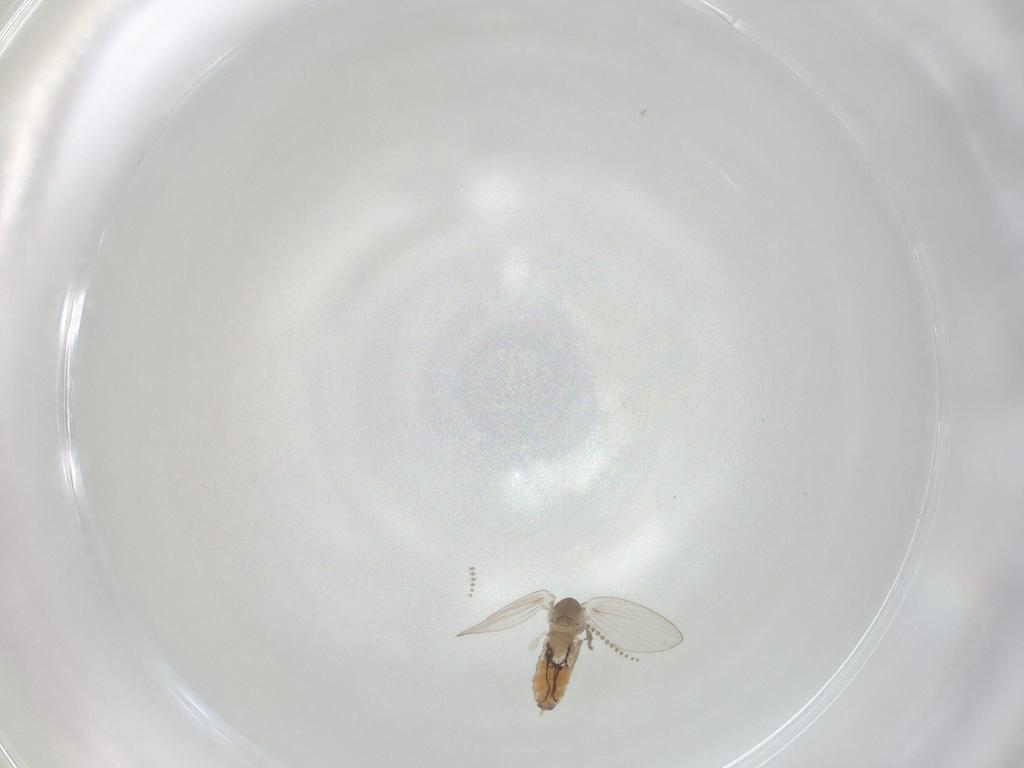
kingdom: Animalia
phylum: Arthropoda
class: Insecta
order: Diptera
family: Psychodidae
